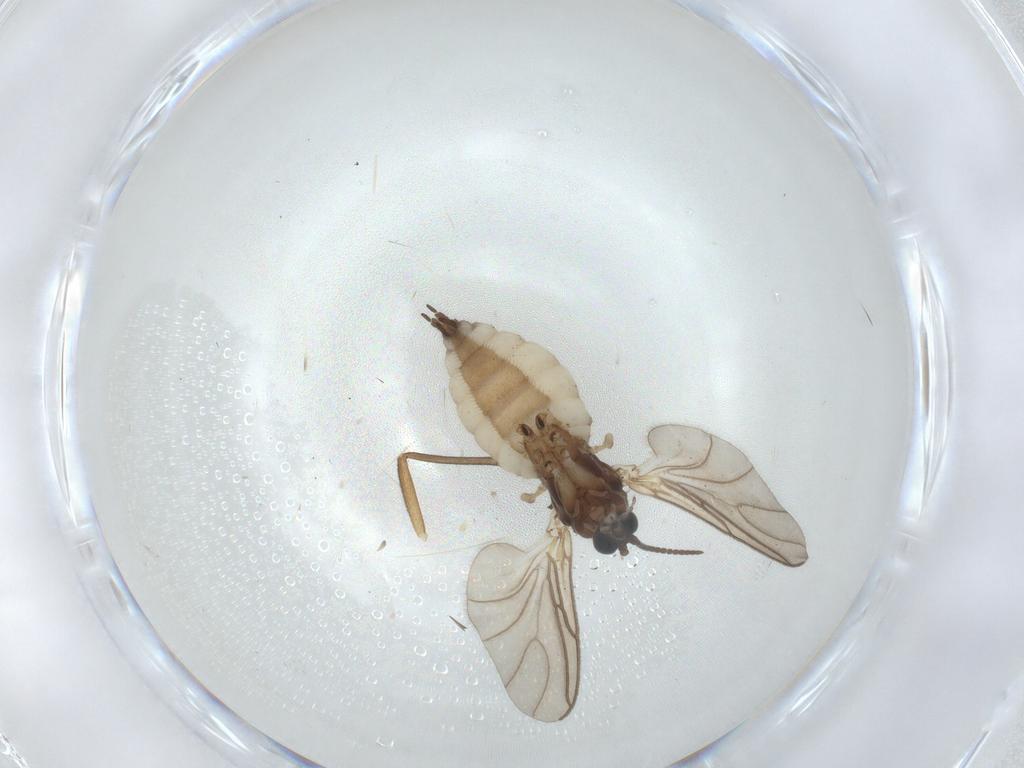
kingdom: Animalia
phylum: Arthropoda
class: Insecta
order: Diptera
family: Sciaridae
